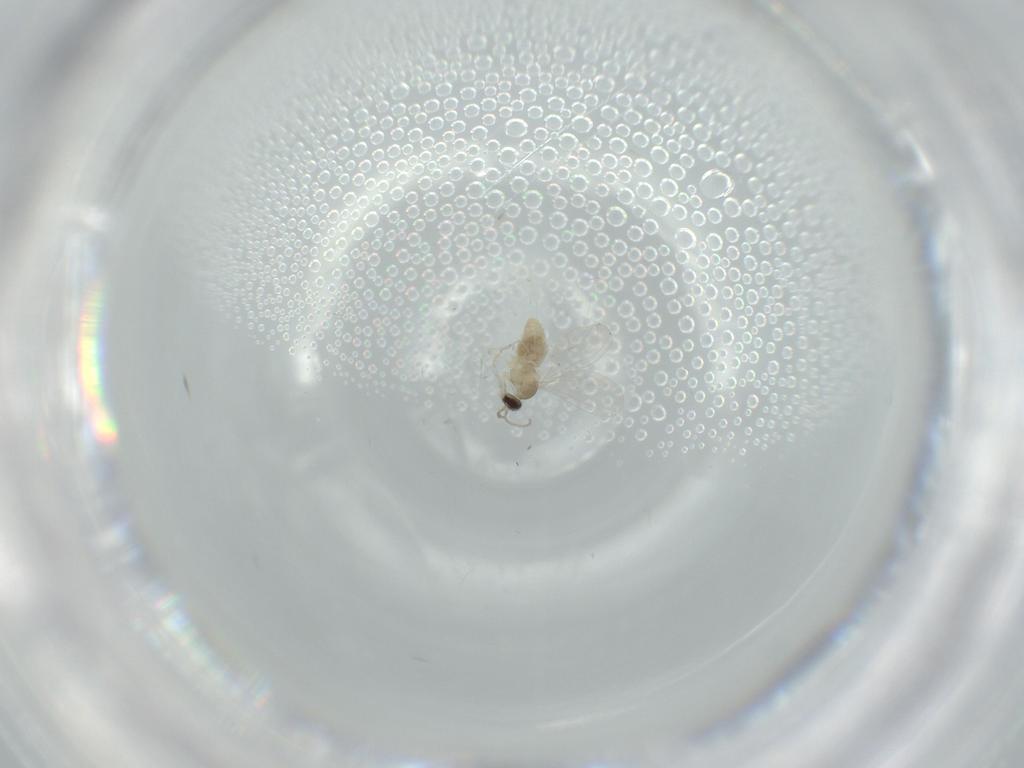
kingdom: Animalia
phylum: Arthropoda
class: Insecta
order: Diptera
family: Cecidomyiidae
